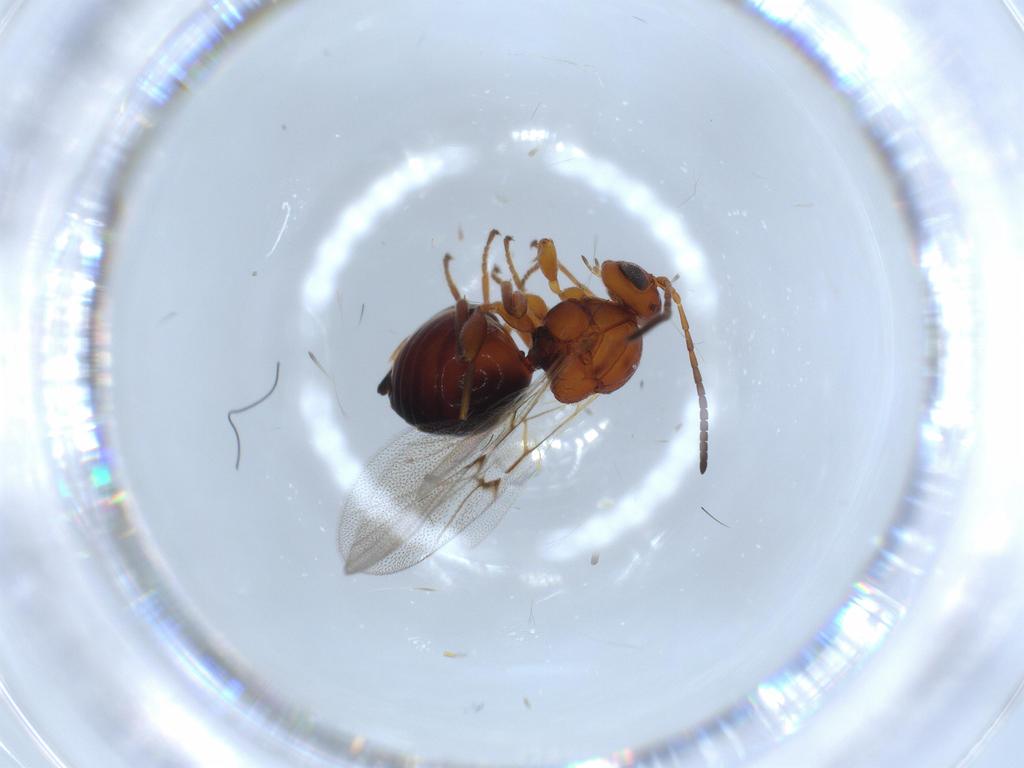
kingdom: Animalia
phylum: Arthropoda
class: Insecta
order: Hymenoptera
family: Cynipidae
